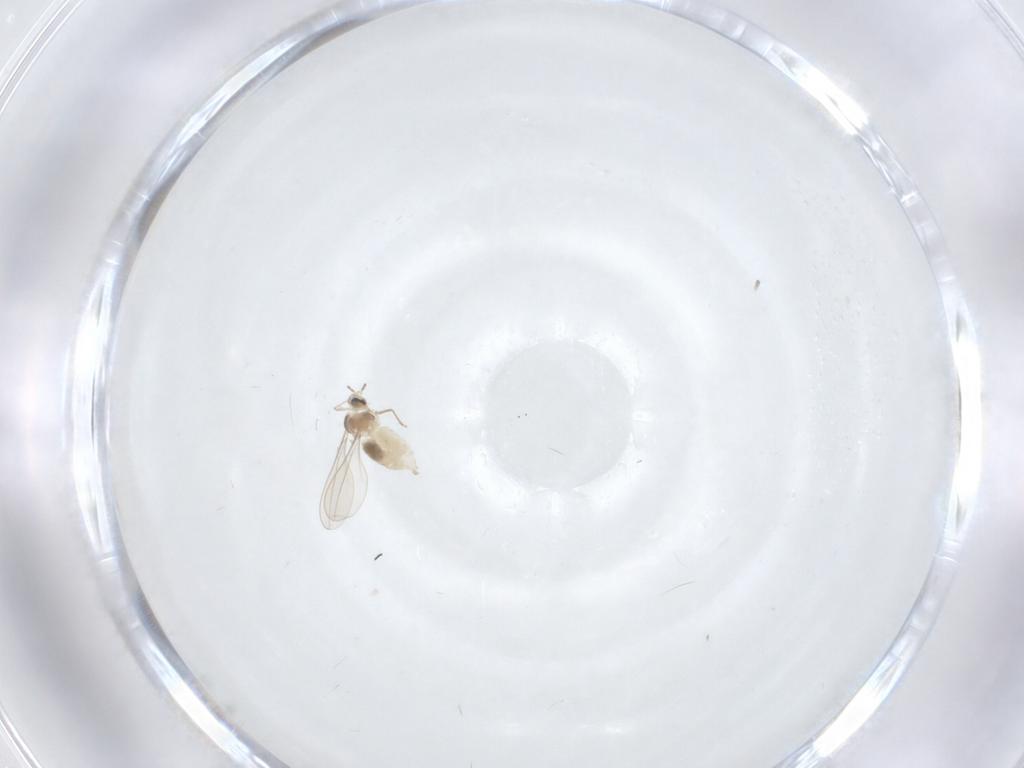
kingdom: Animalia
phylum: Arthropoda
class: Insecta
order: Diptera
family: Cecidomyiidae
